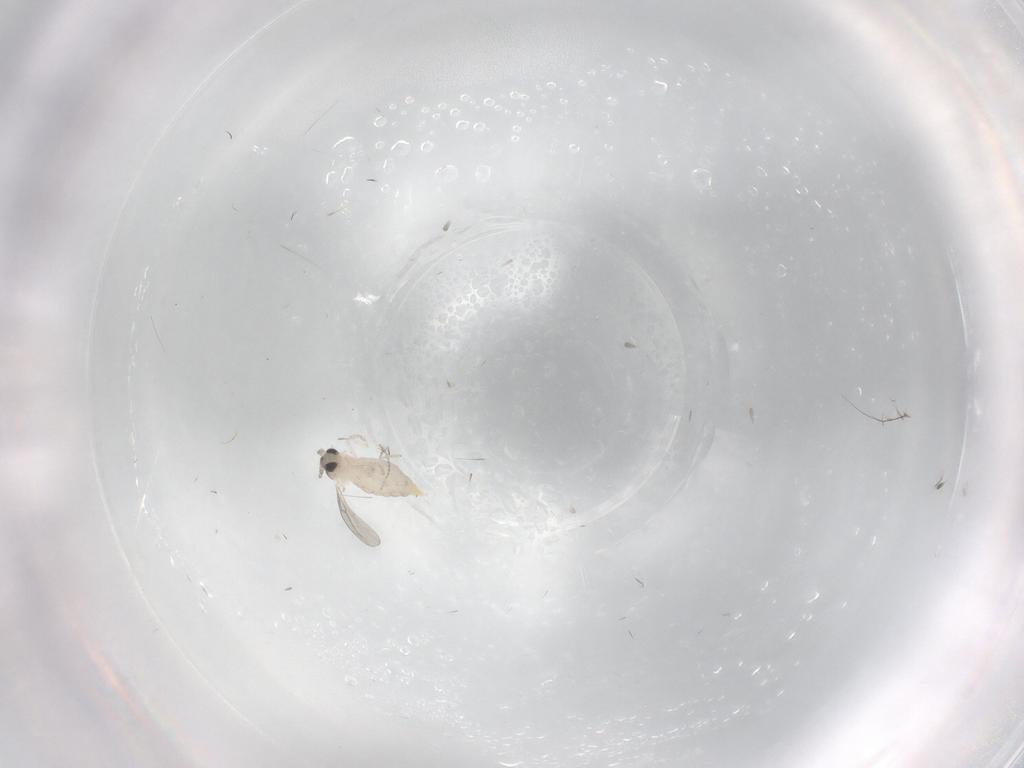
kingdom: Animalia
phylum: Arthropoda
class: Insecta
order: Diptera
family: Cecidomyiidae
